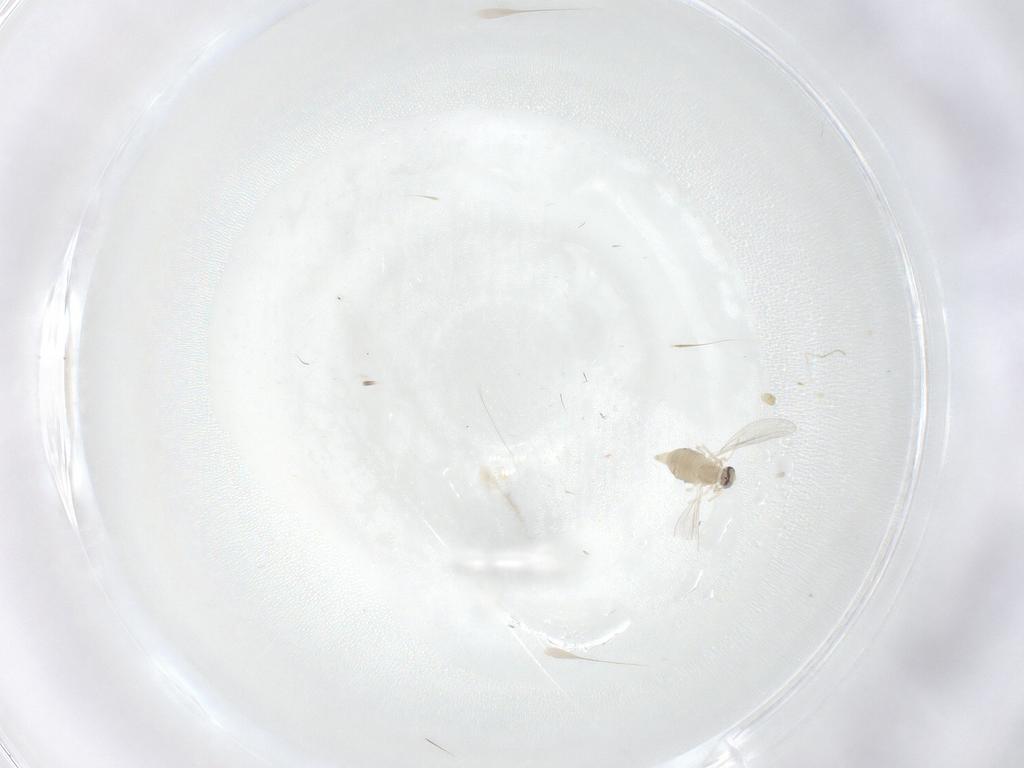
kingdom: Animalia
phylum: Arthropoda
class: Insecta
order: Diptera
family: Cecidomyiidae
